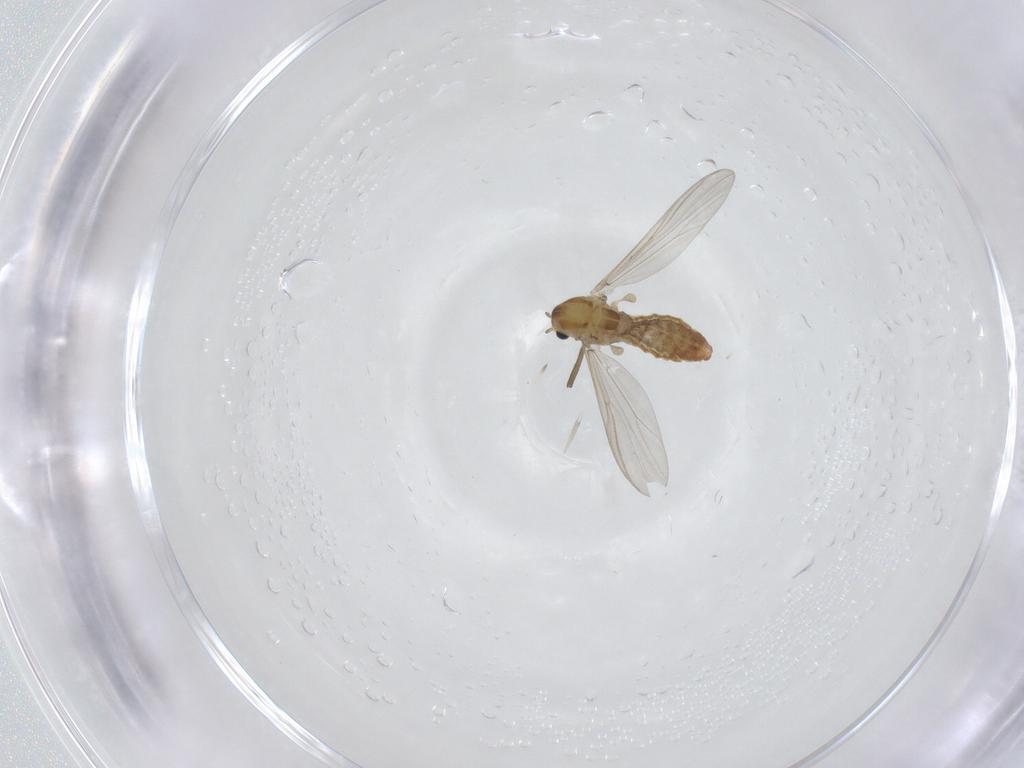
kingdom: Animalia
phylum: Arthropoda
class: Insecta
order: Diptera
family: Chironomidae
